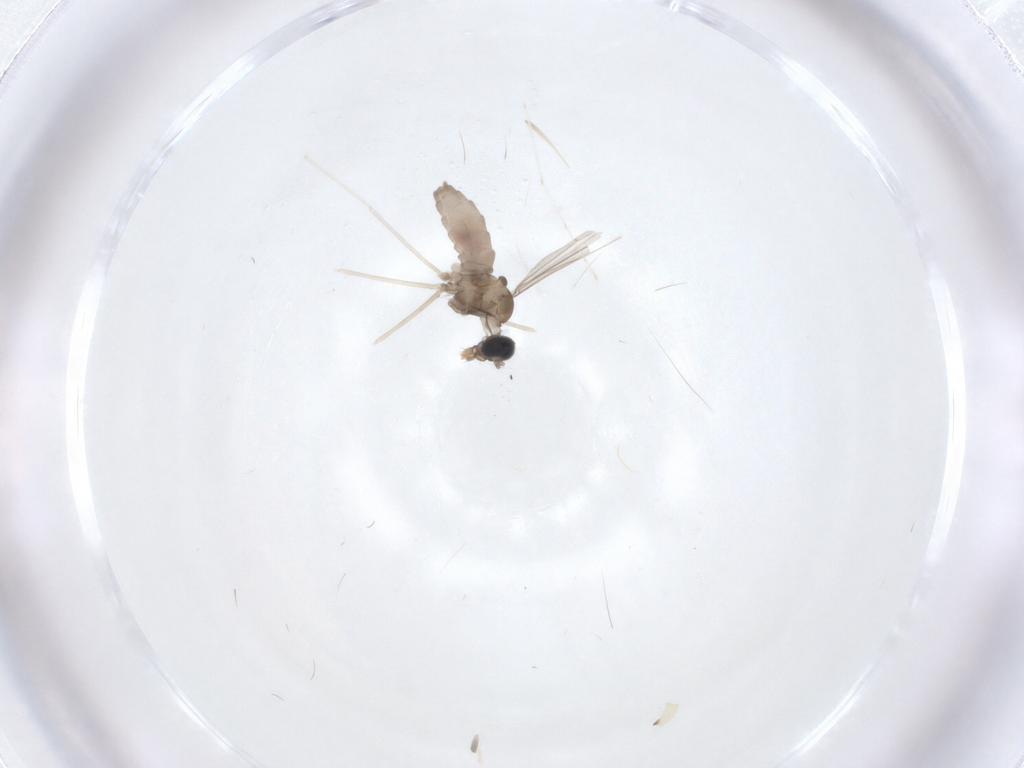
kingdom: Animalia
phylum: Arthropoda
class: Insecta
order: Diptera
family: Cecidomyiidae
